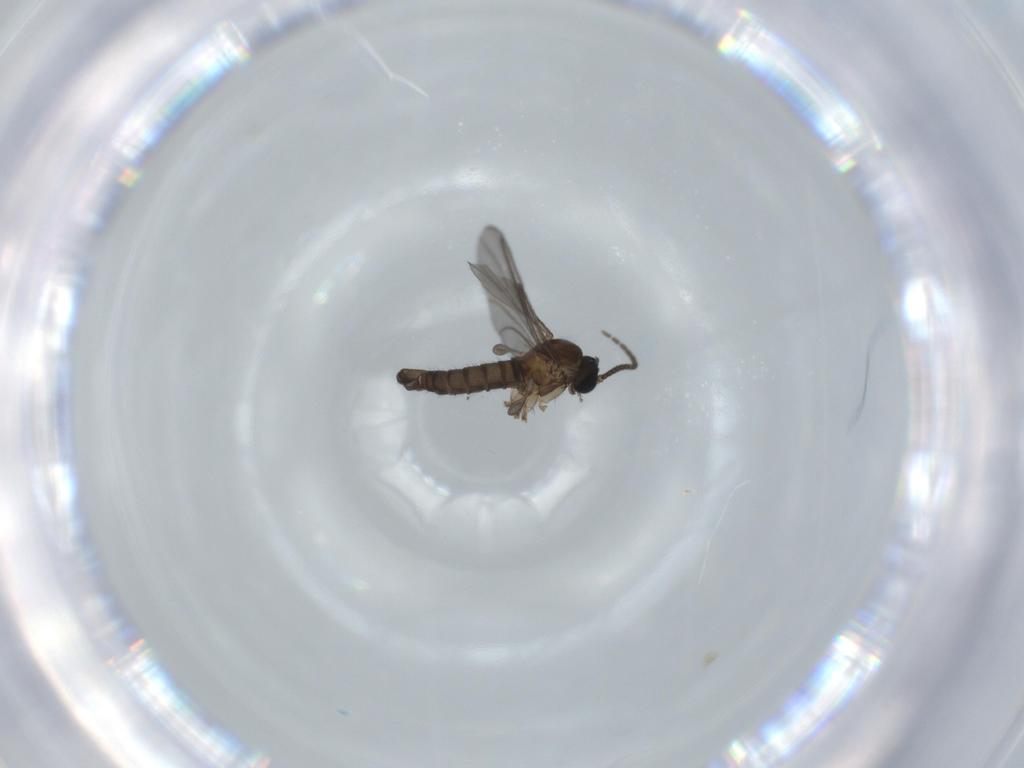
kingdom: Animalia
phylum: Arthropoda
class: Insecta
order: Diptera
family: Sciaridae
